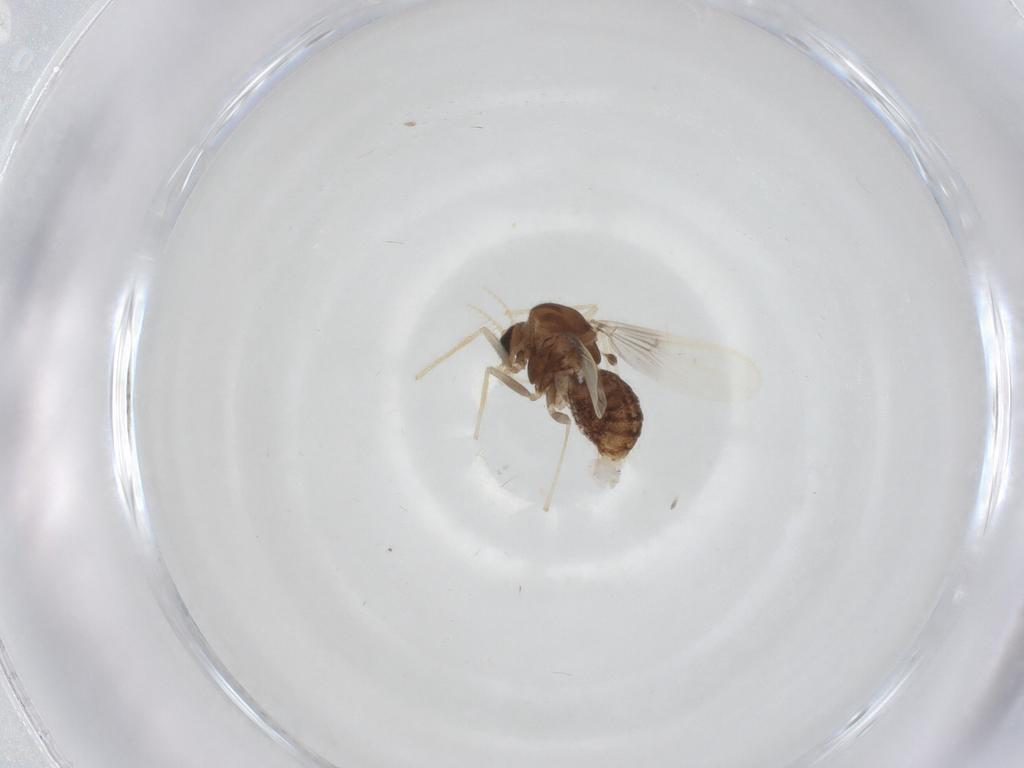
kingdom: Animalia
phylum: Arthropoda
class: Insecta
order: Diptera
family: Chironomidae
